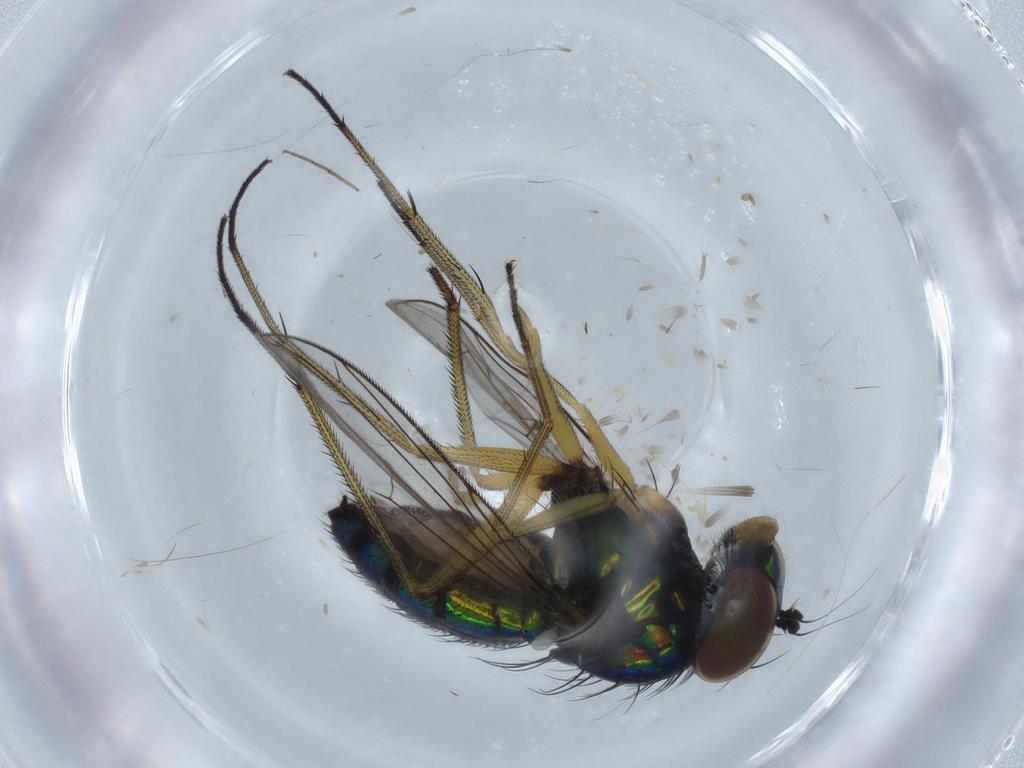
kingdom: Animalia
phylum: Arthropoda
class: Insecta
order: Diptera
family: Dolichopodidae
